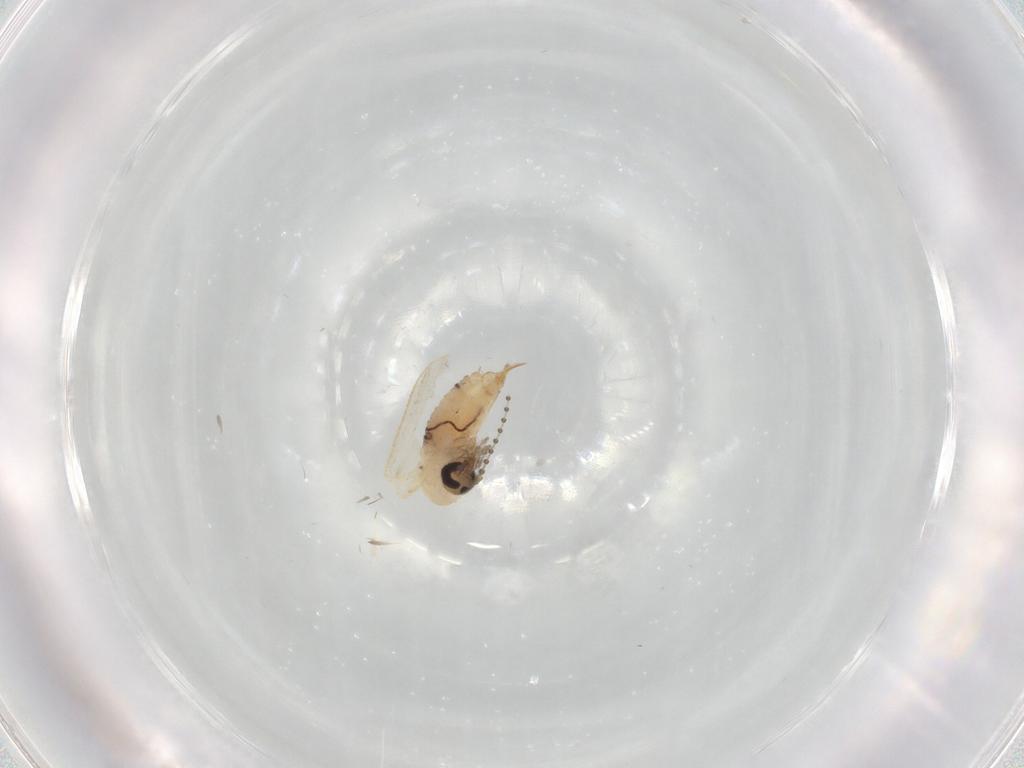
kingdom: Animalia
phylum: Arthropoda
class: Insecta
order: Diptera
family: Psychodidae
